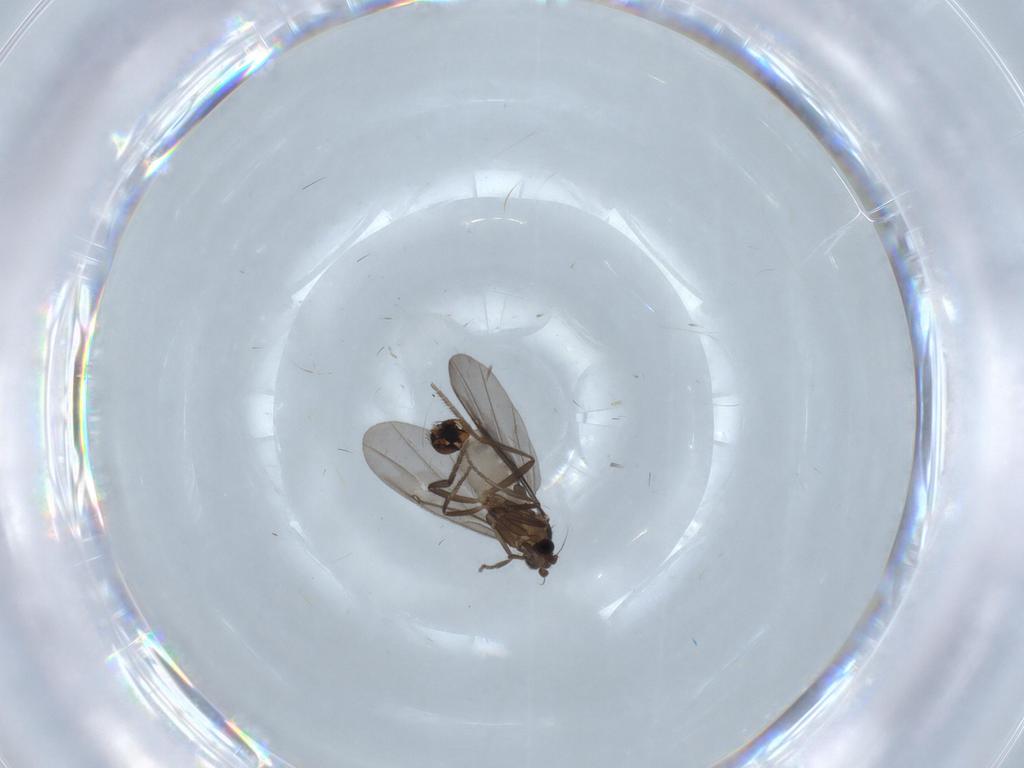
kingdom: Animalia
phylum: Arthropoda
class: Insecta
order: Diptera
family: Phoridae
